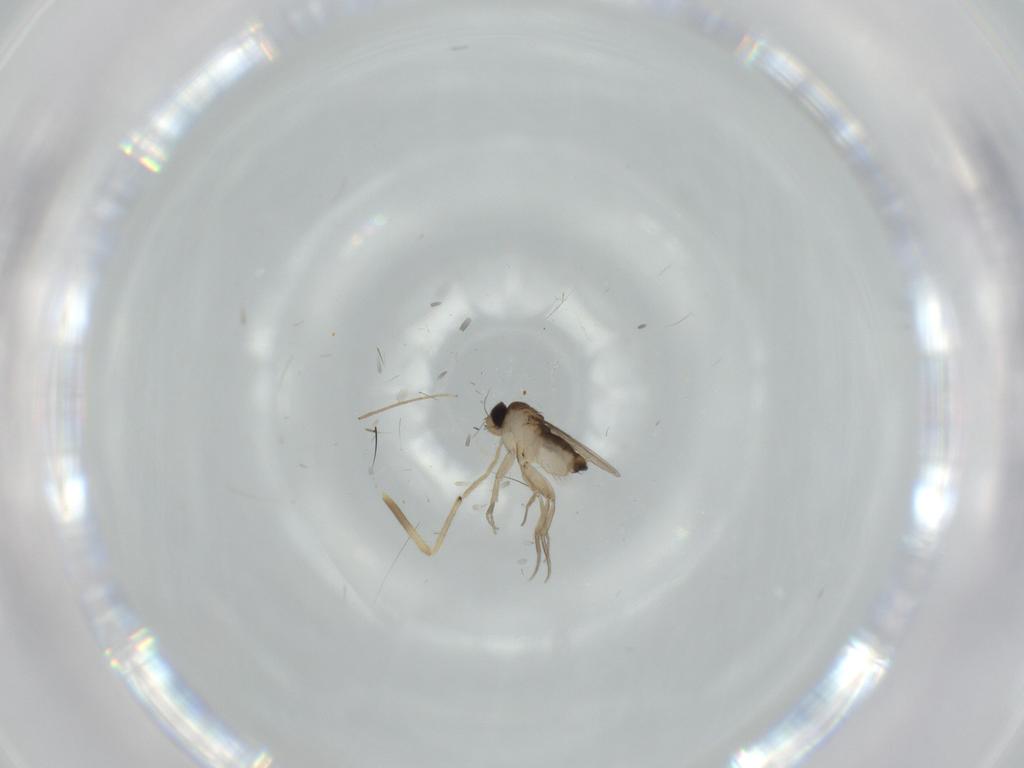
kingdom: Animalia
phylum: Arthropoda
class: Insecta
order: Diptera
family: Phoridae
